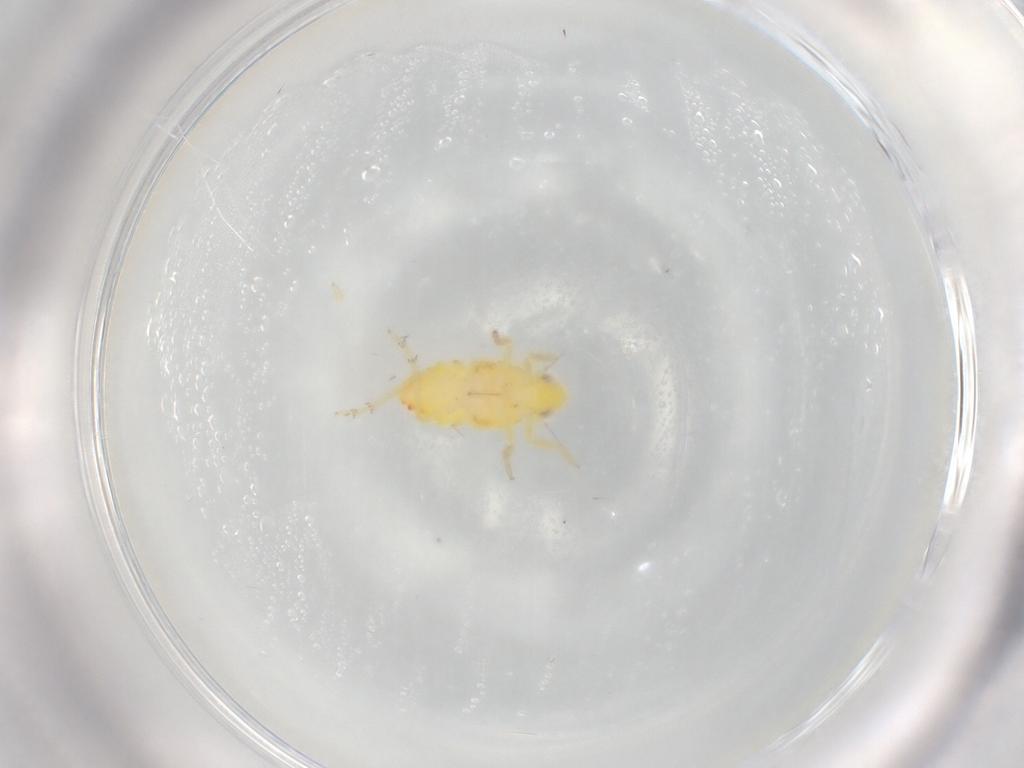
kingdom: Animalia
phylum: Arthropoda
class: Insecta
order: Hemiptera
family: Tropiduchidae
